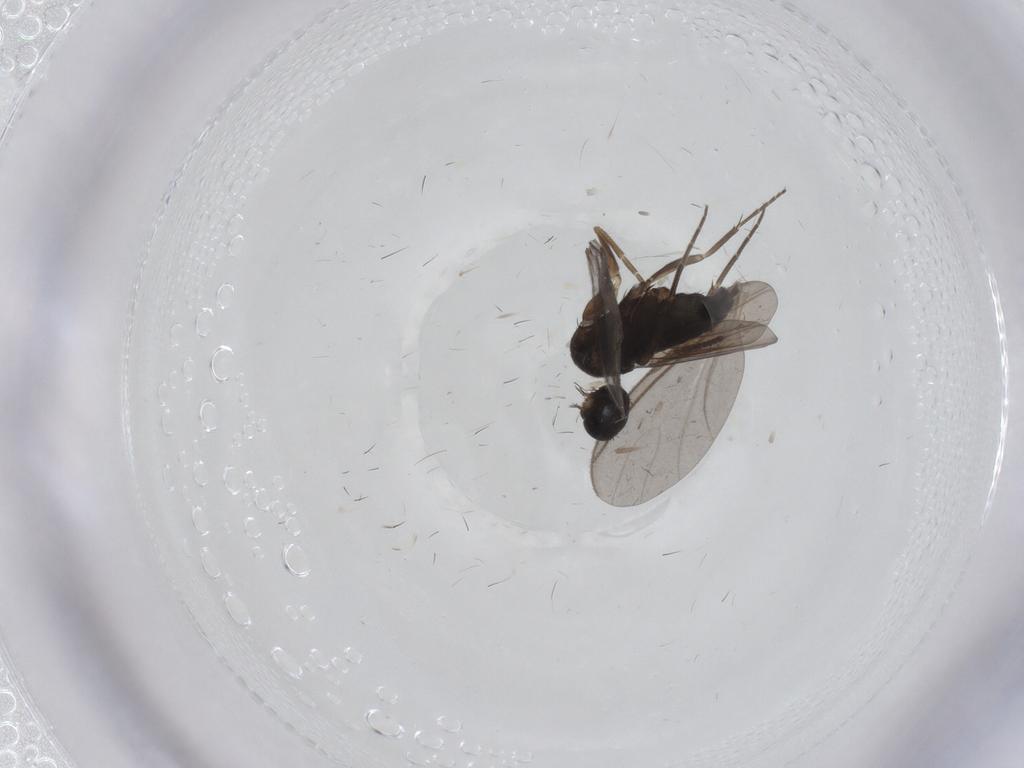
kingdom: Animalia
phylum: Arthropoda
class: Insecta
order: Diptera
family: Phoridae
